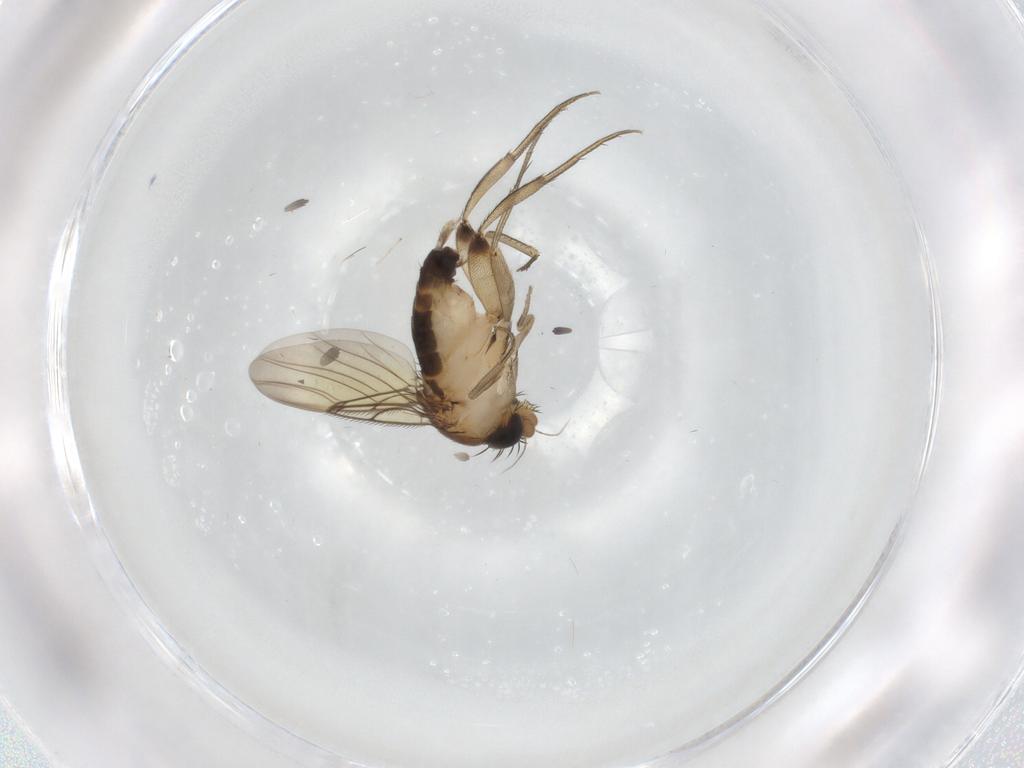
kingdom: Animalia
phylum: Arthropoda
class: Insecta
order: Diptera
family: Phoridae
